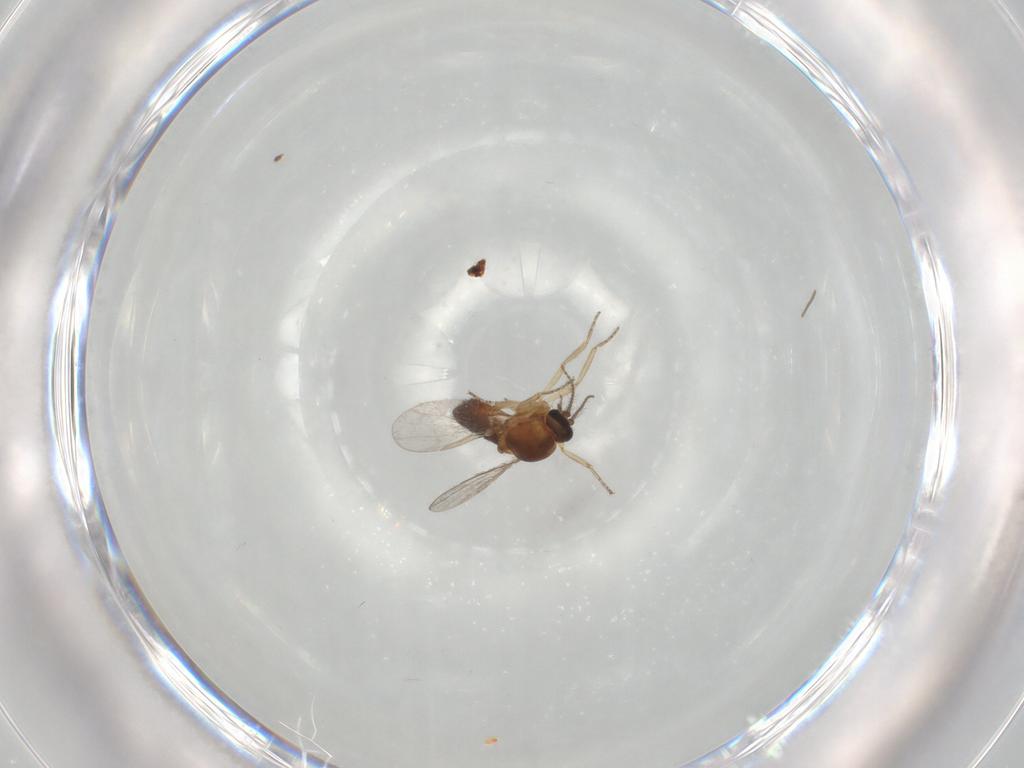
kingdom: Animalia
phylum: Arthropoda
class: Insecta
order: Diptera
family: Ceratopogonidae
